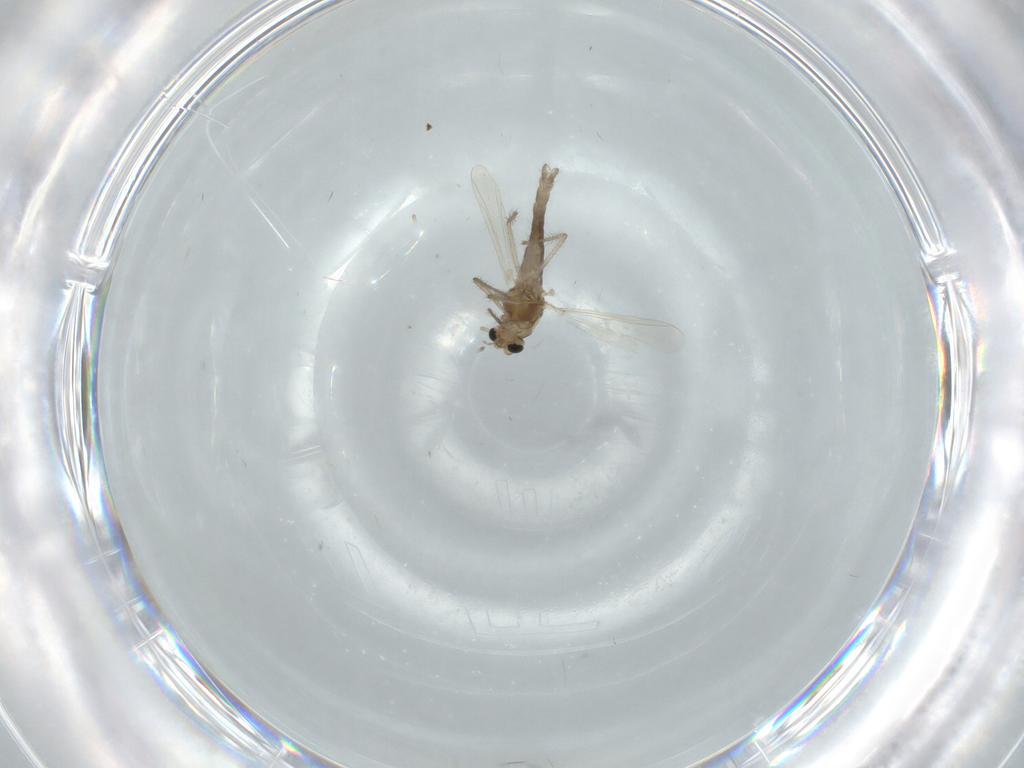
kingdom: Animalia
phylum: Arthropoda
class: Insecta
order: Diptera
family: Chironomidae
